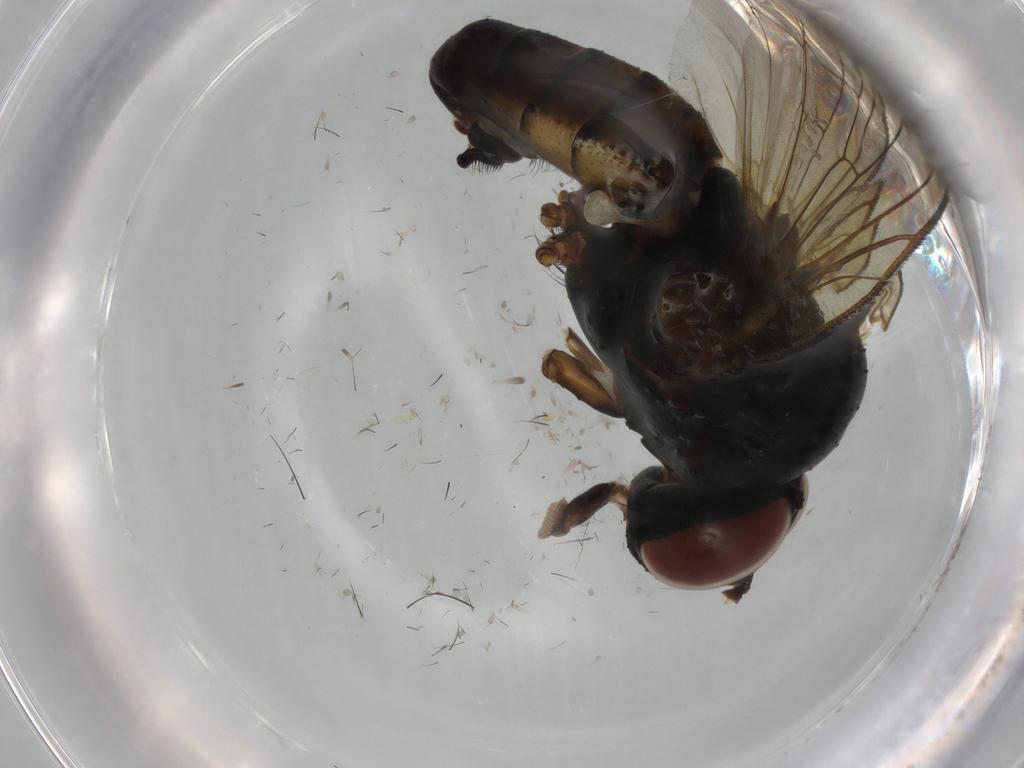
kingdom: Animalia
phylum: Arthropoda
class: Insecta
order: Diptera
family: Anthomyiidae
